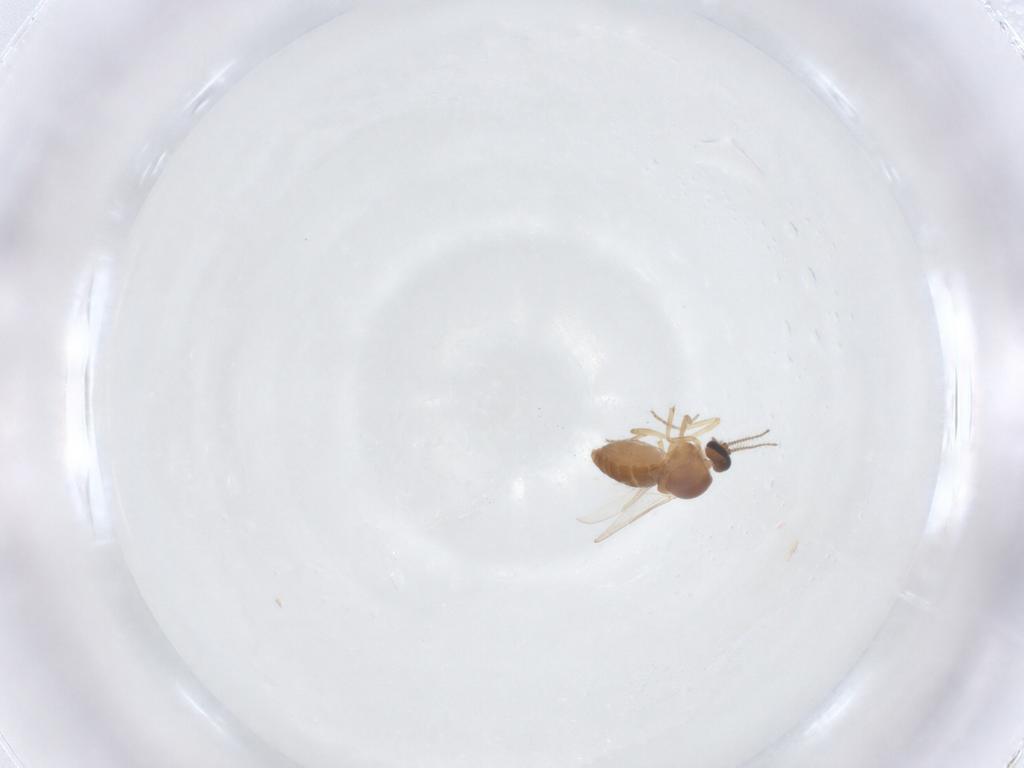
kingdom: Animalia
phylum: Arthropoda
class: Insecta
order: Diptera
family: Ceratopogonidae
